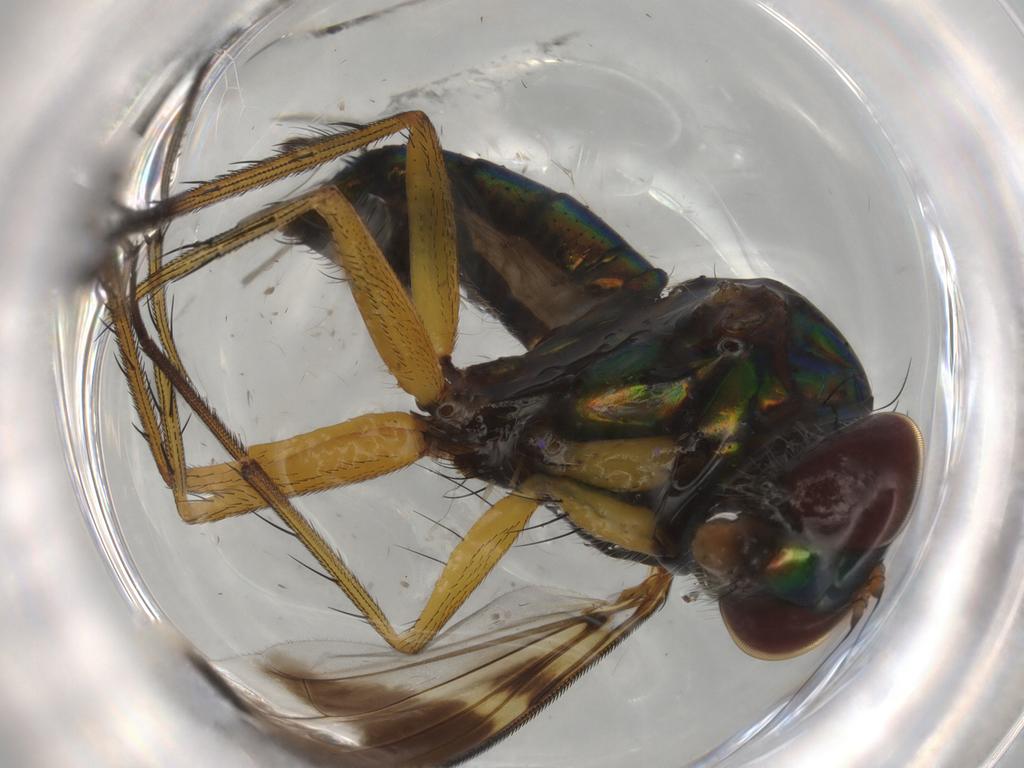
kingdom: Animalia
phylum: Arthropoda
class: Insecta
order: Diptera
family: Dolichopodidae
